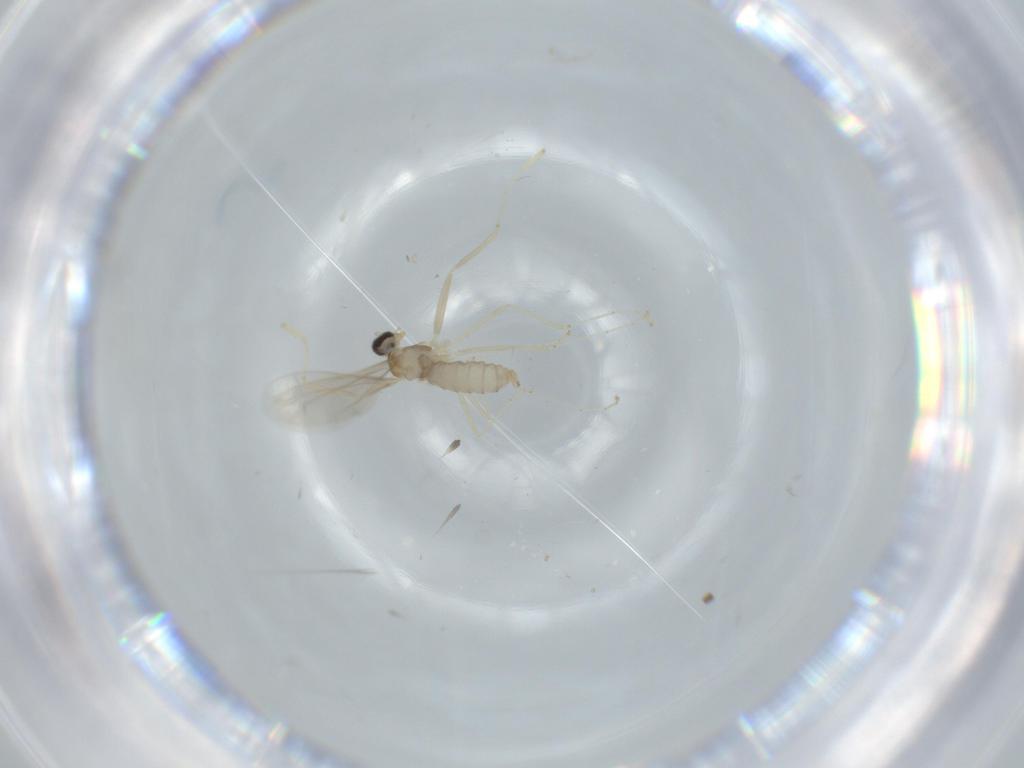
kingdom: Animalia
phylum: Arthropoda
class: Insecta
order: Diptera
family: Cecidomyiidae
